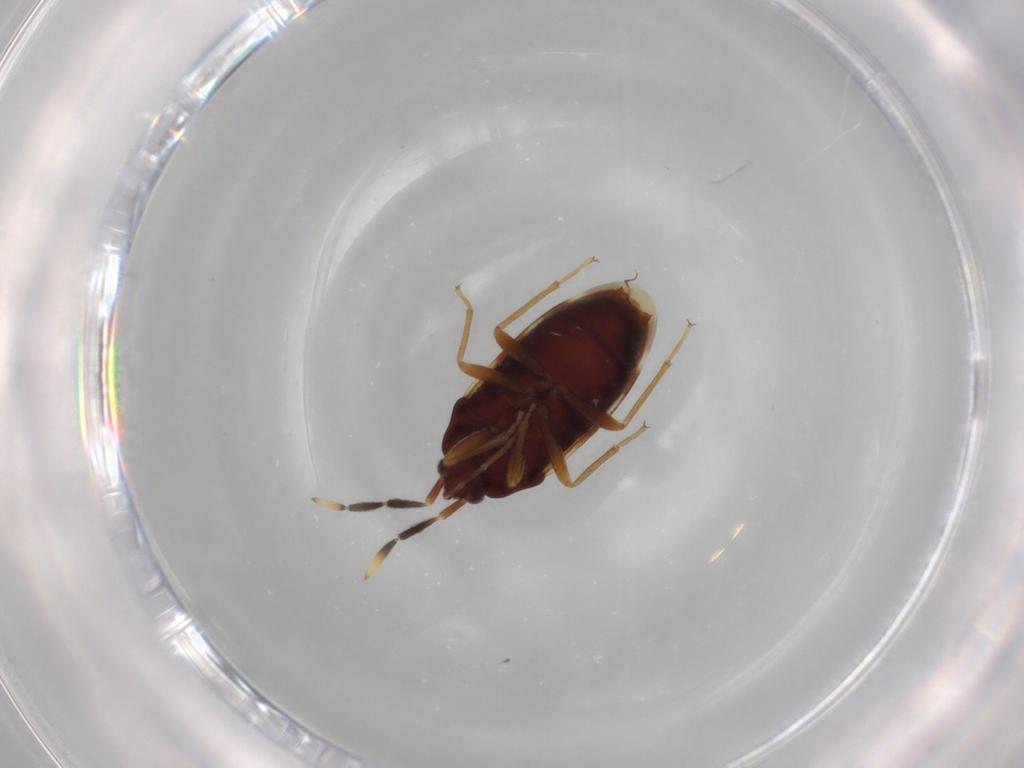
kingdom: Animalia
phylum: Arthropoda
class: Insecta
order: Hemiptera
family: Rhyparochromidae
